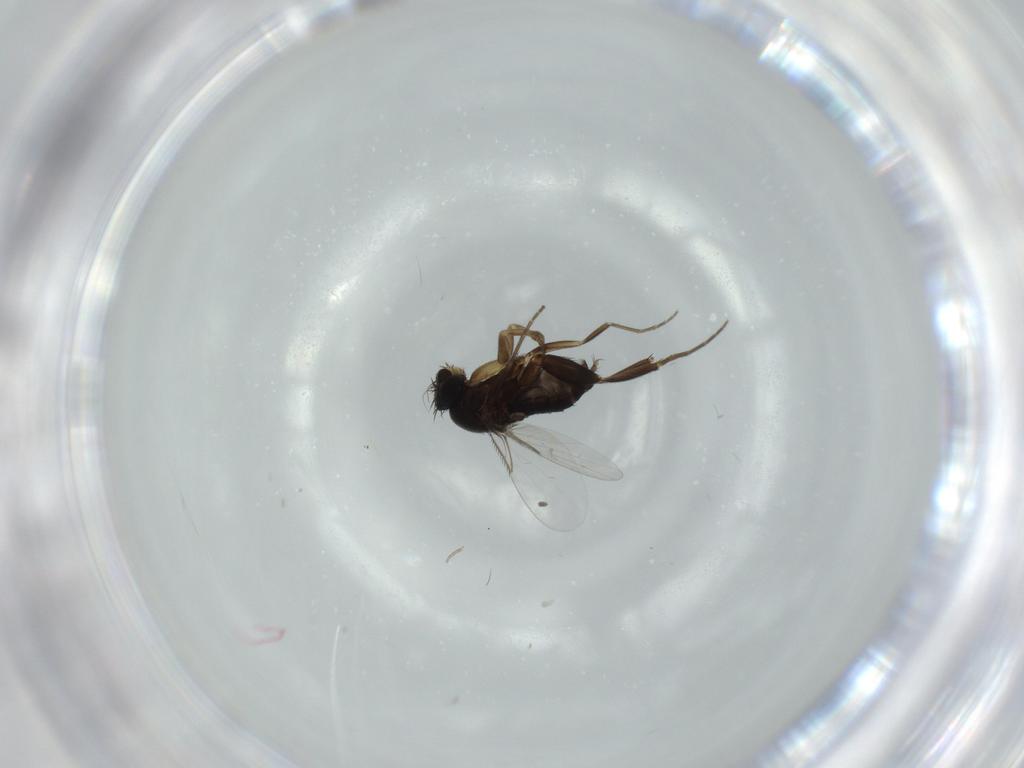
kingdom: Animalia
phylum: Arthropoda
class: Insecta
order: Diptera
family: Phoridae
